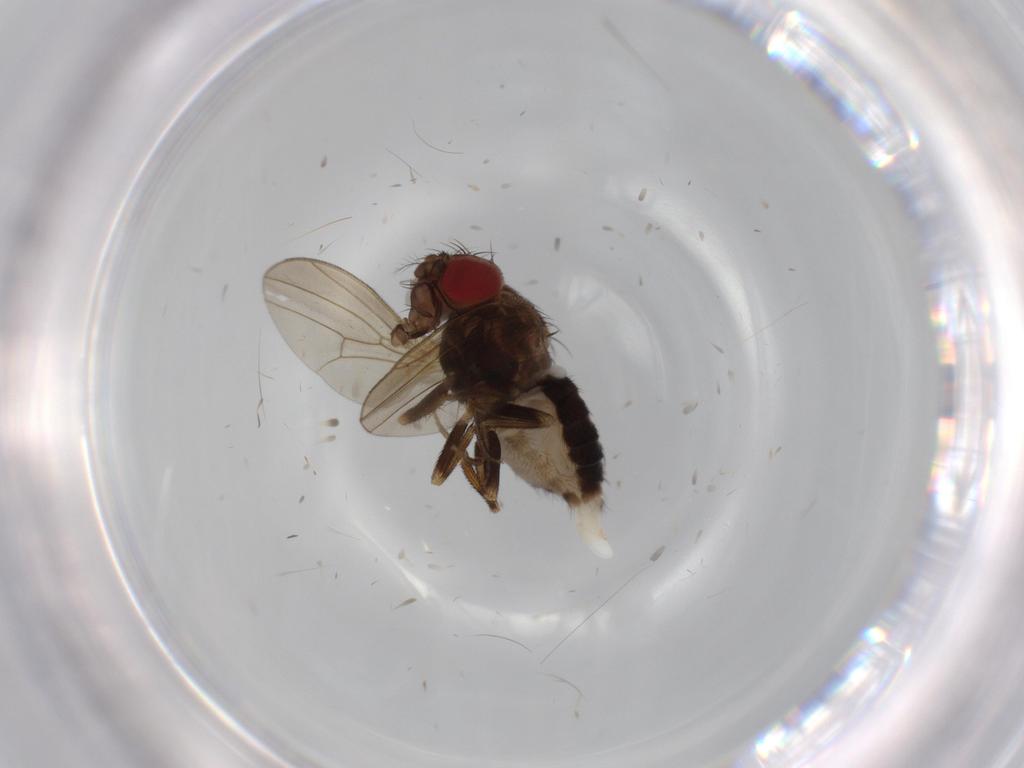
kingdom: Animalia
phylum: Arthropoda
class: Insecta
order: Diptera
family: Drosophilidae
